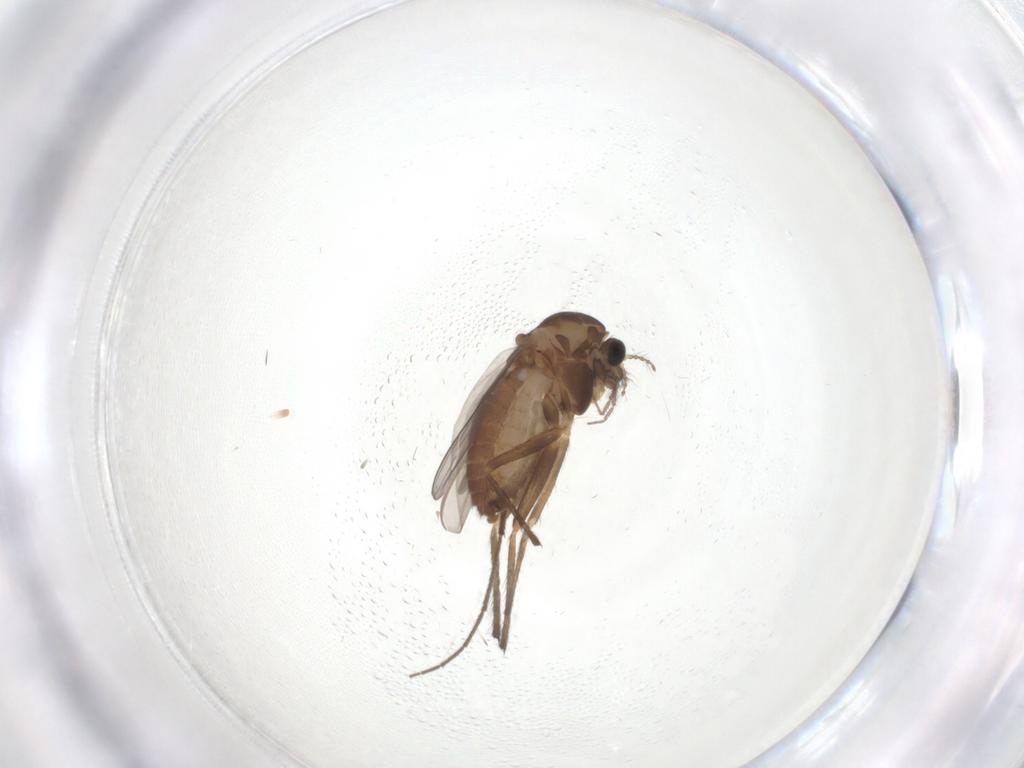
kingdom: Animalia
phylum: Arthropoda
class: Insecta
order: Diptera
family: Chironomidae
